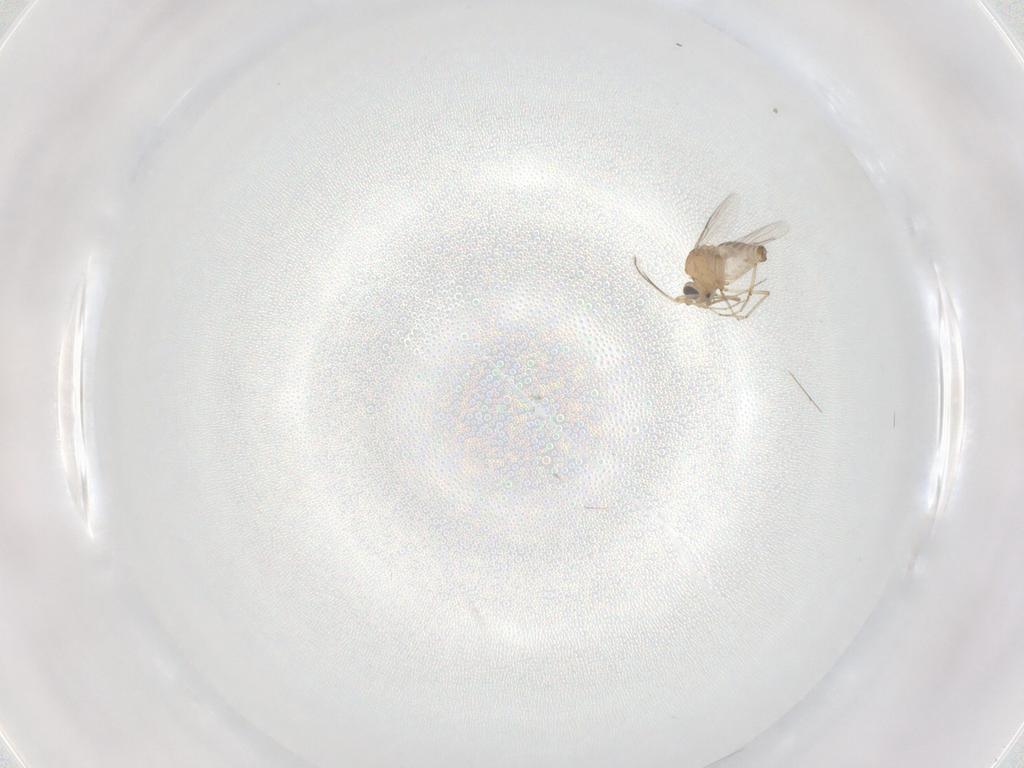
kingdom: Animalia
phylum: Arthropoda
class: Insecta
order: Diptera
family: Ceratopogonidae
